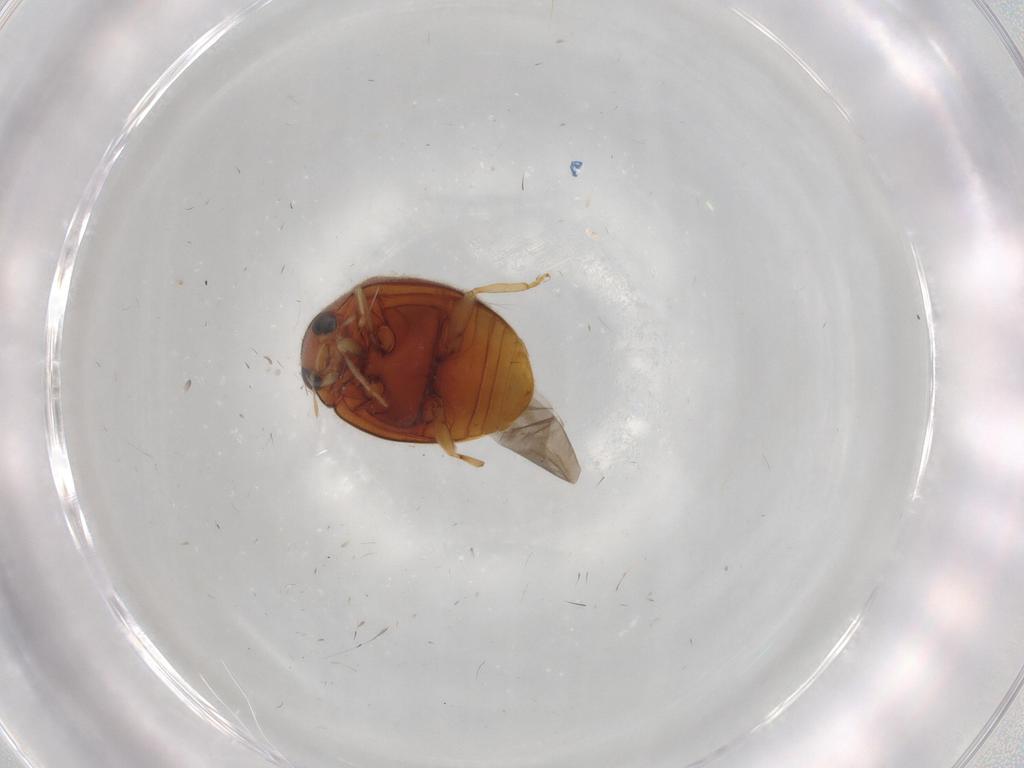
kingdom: Animalia
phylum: Arthropoda
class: Insecta
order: Coleoptera
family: Coccinellidae
